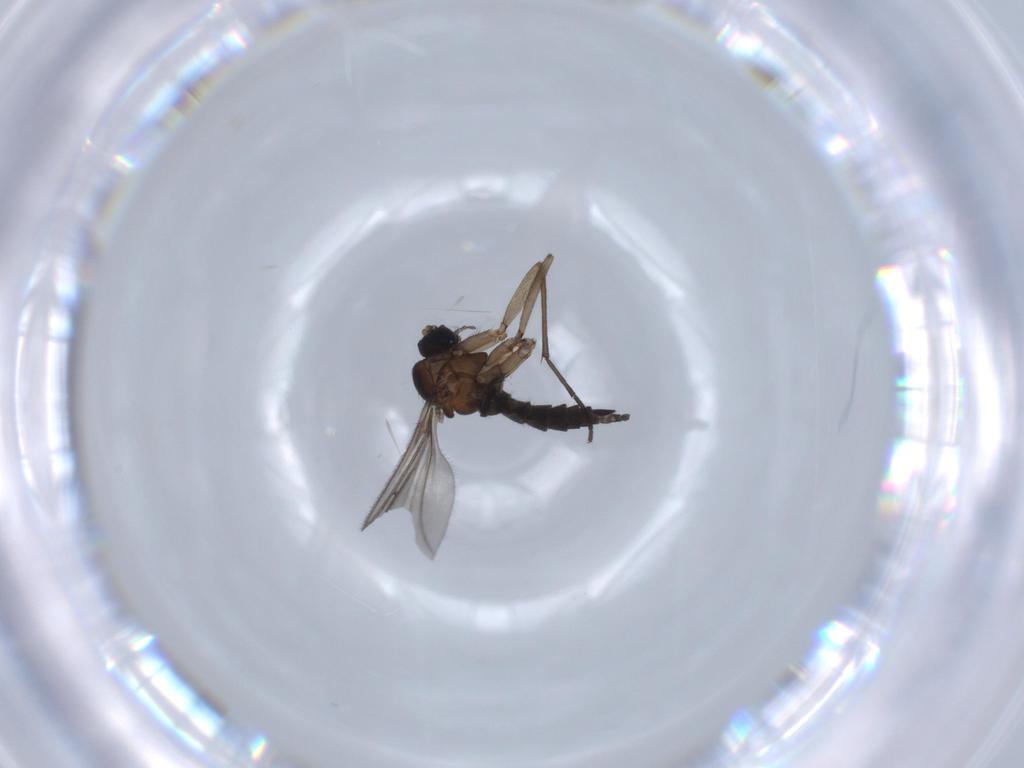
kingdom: Animalia
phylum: Arthropoda
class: Insecta
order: Diptera
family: Sciaridae
